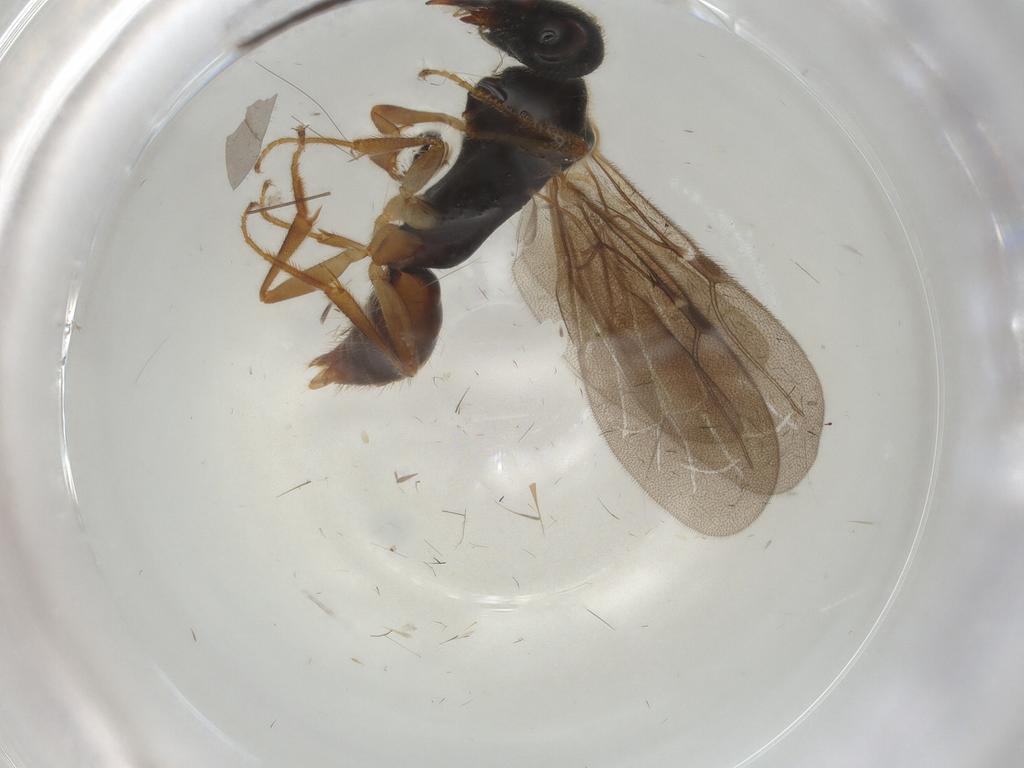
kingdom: Animalia
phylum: Arthropoda
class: Insecta
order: Hymenoptera
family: Bethylidae
